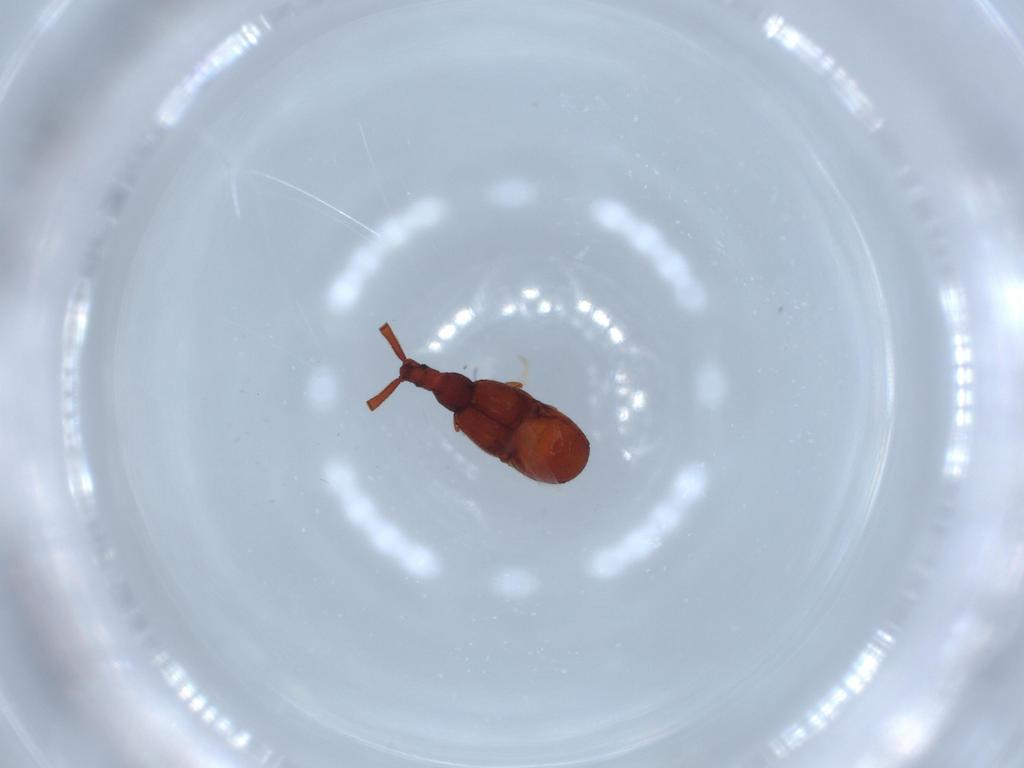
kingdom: Animalia
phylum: Arthropoda
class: Insecta
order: Coleoptera
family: Staphylinidae
